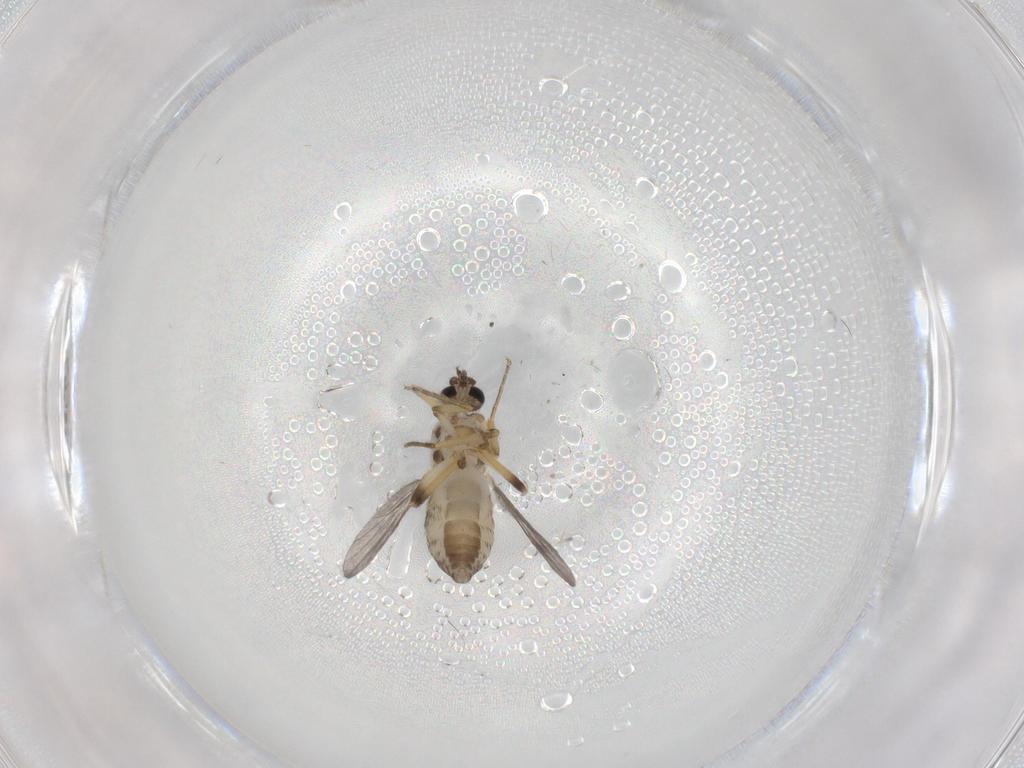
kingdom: Animalia
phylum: Arthropoda
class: Insecta
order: Diptera
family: Ceratopogonidae
